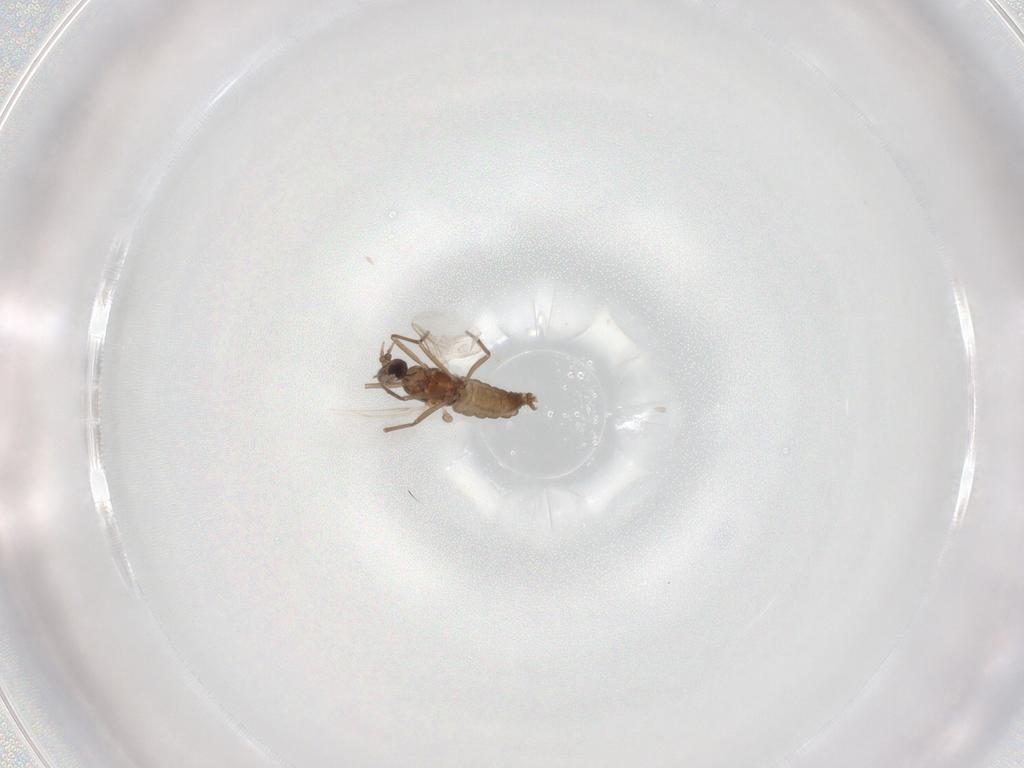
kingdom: Animalia
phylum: Arthropoda
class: Insecta
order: Diptera
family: Cecidomyiidae
